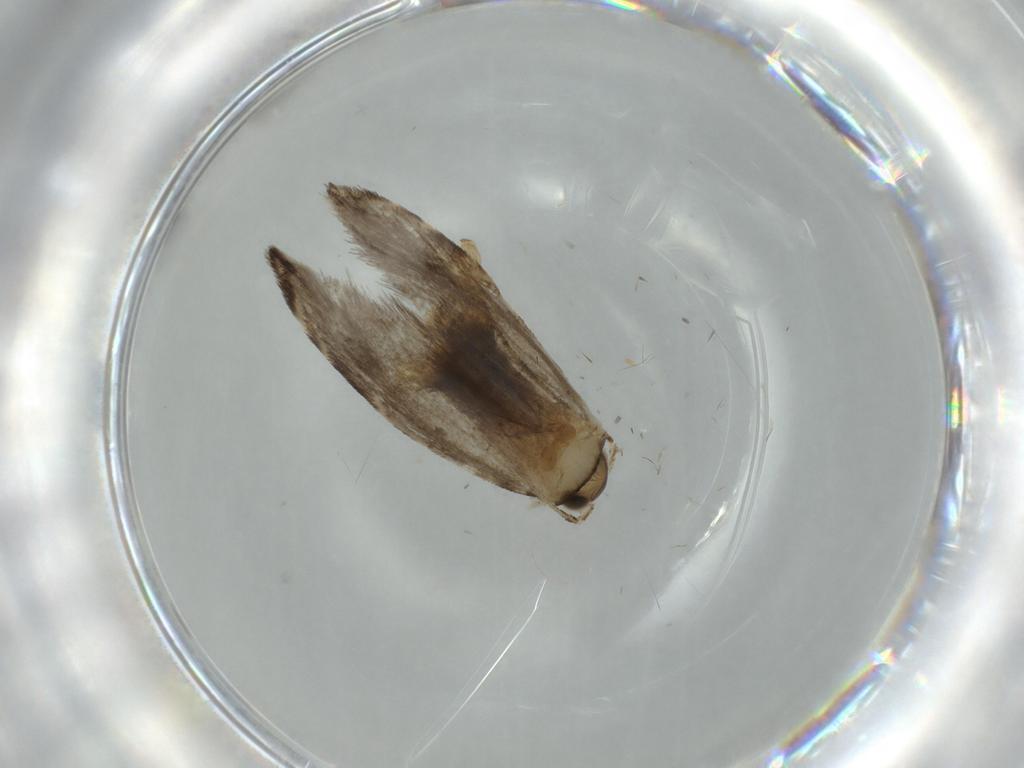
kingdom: Animalia
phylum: Arthropoda
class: Insecta
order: Lepidoptera
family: Tineidae
